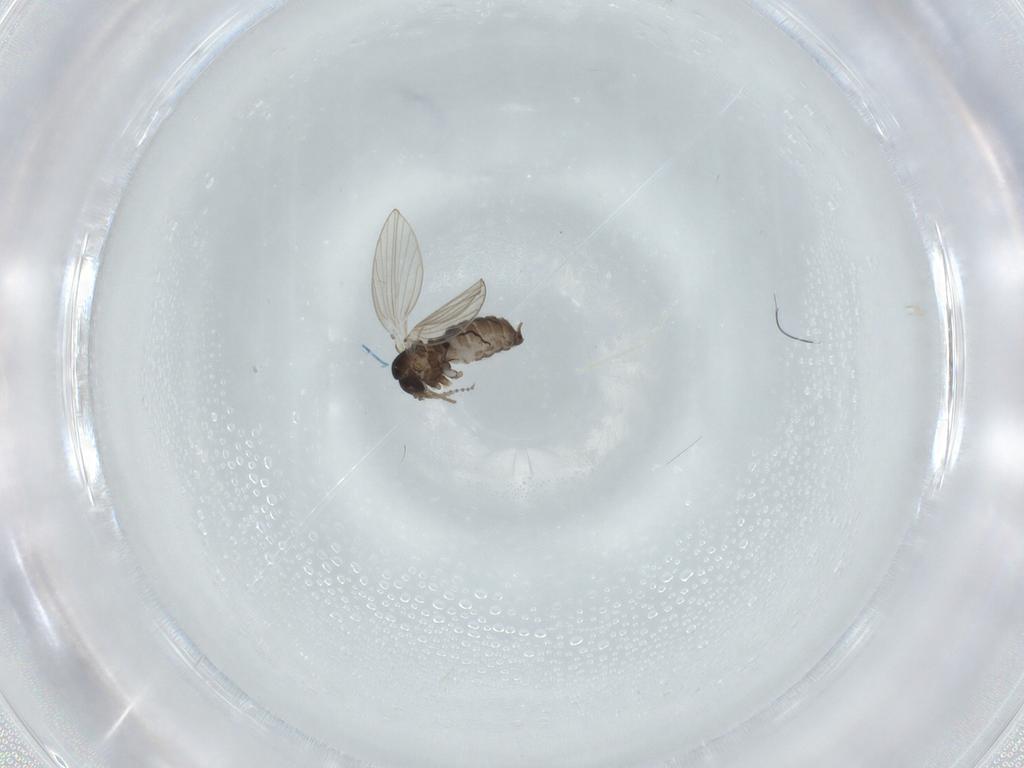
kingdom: Animalia
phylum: Arthropoda
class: Insecta
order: Diptera
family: Psychodidae
